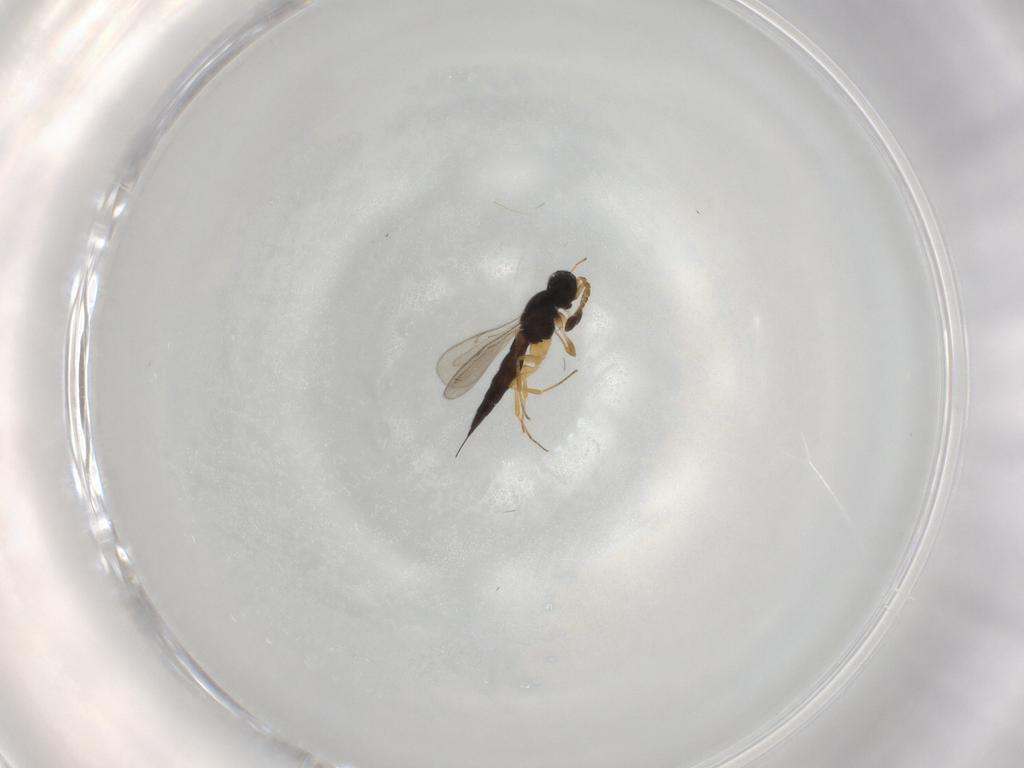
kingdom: Animalia
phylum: Arthropoda
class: Insecta
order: Hymenoptera
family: Scelionidae
